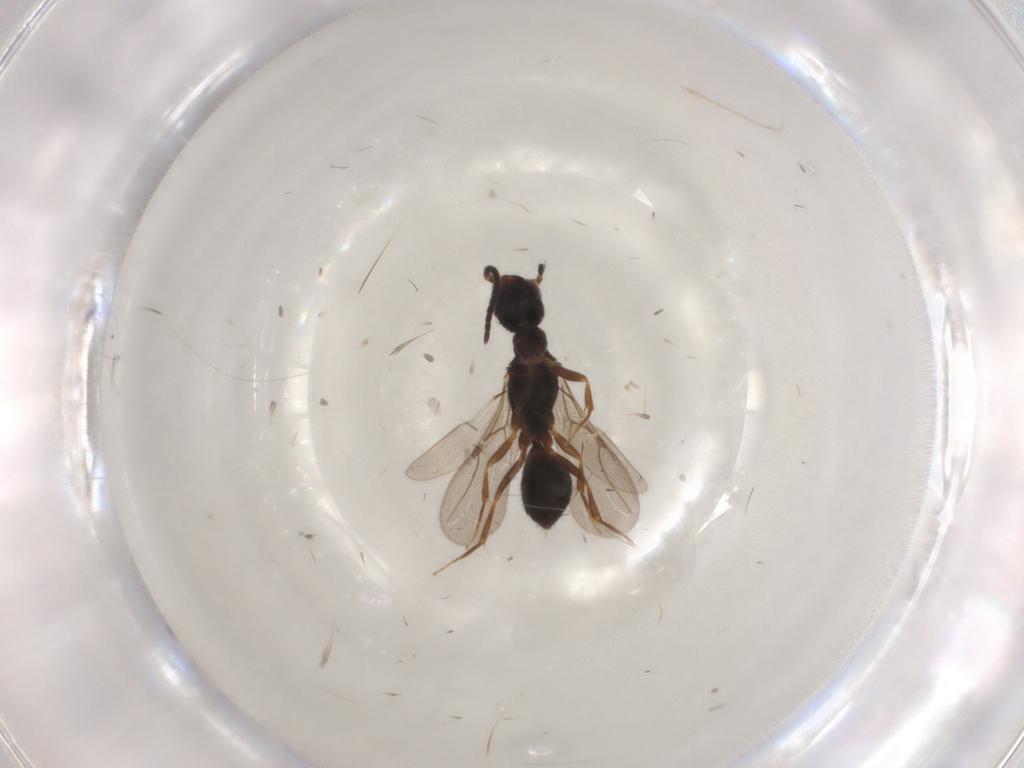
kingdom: Animalia
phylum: Arthropoda
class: Insecta
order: Hymenoptera
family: Bethylidae
